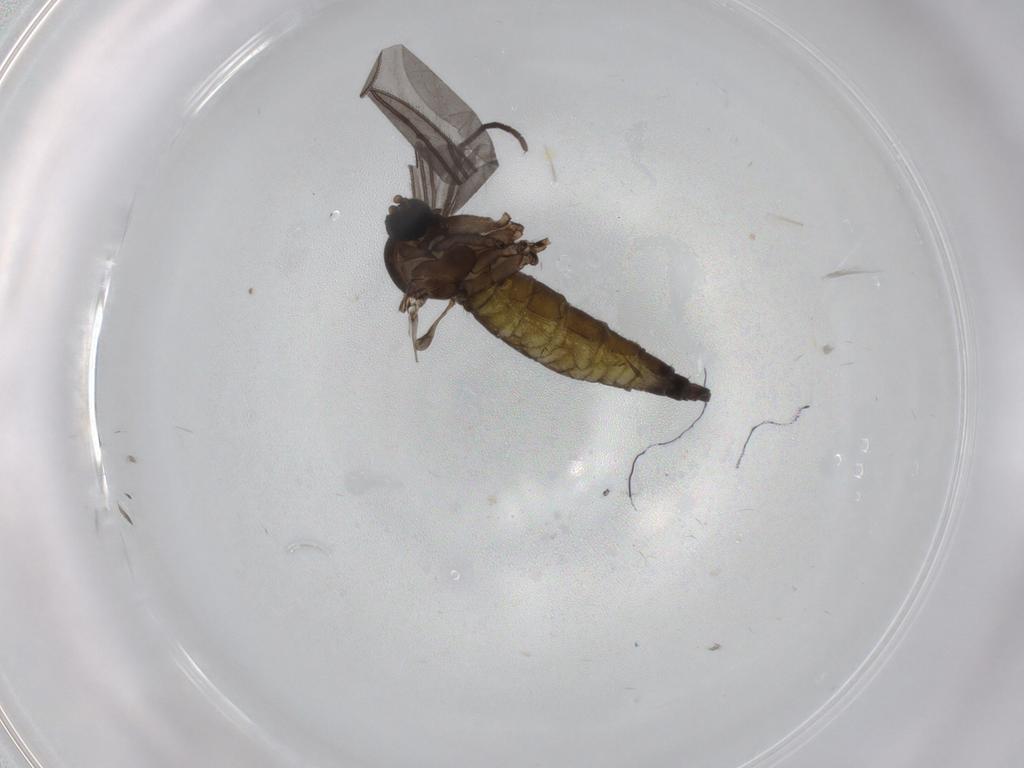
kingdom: Animalia
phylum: Arthropoda
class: Insecta
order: Diptera
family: Sciaridae
